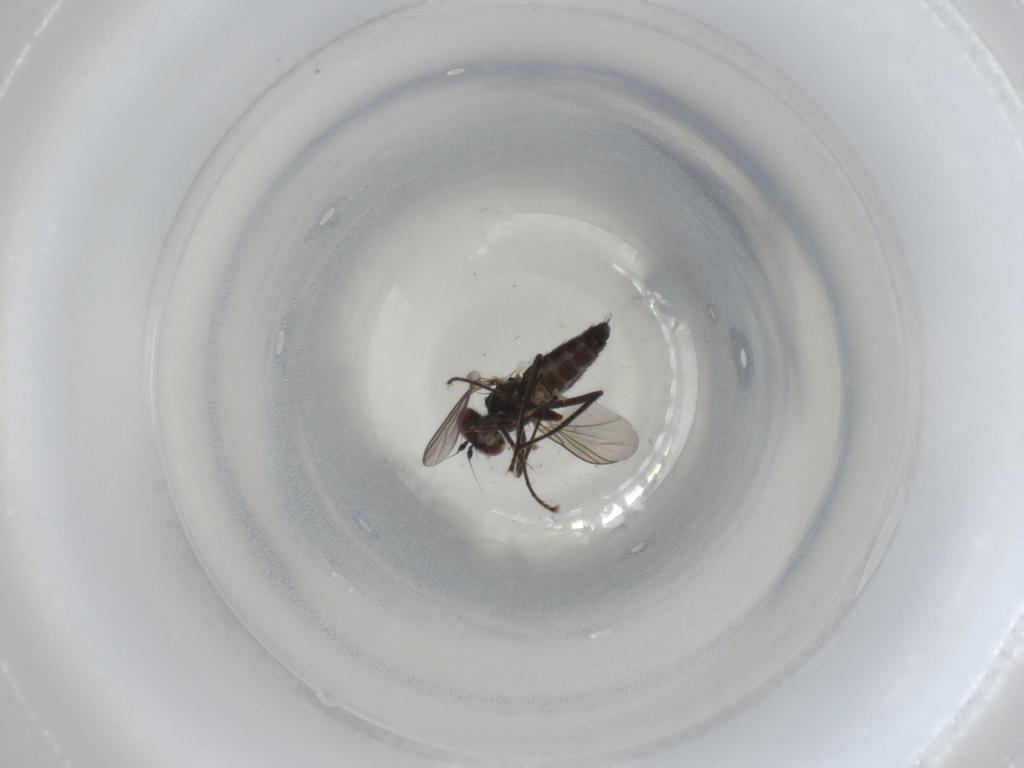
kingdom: Animalia
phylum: Arthropoda
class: Insecta
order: Diptera
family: Dolichopodidae
